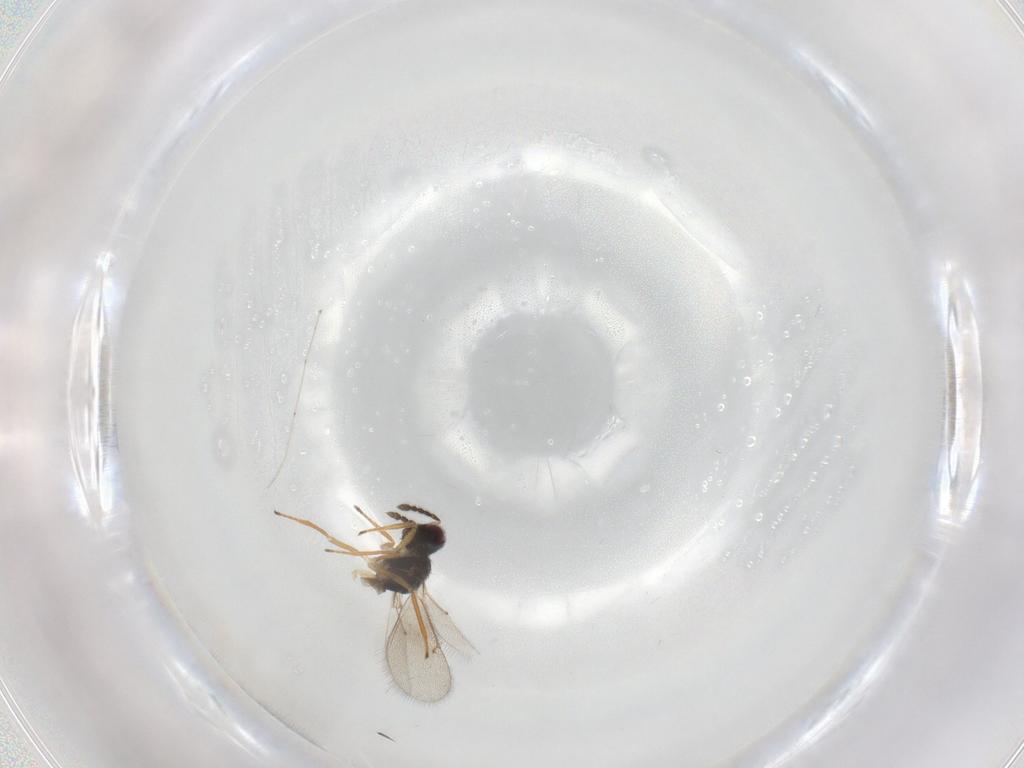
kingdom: Animalia
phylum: Arthropoda
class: Insecta
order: Hymenoptera
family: Eulophidae
